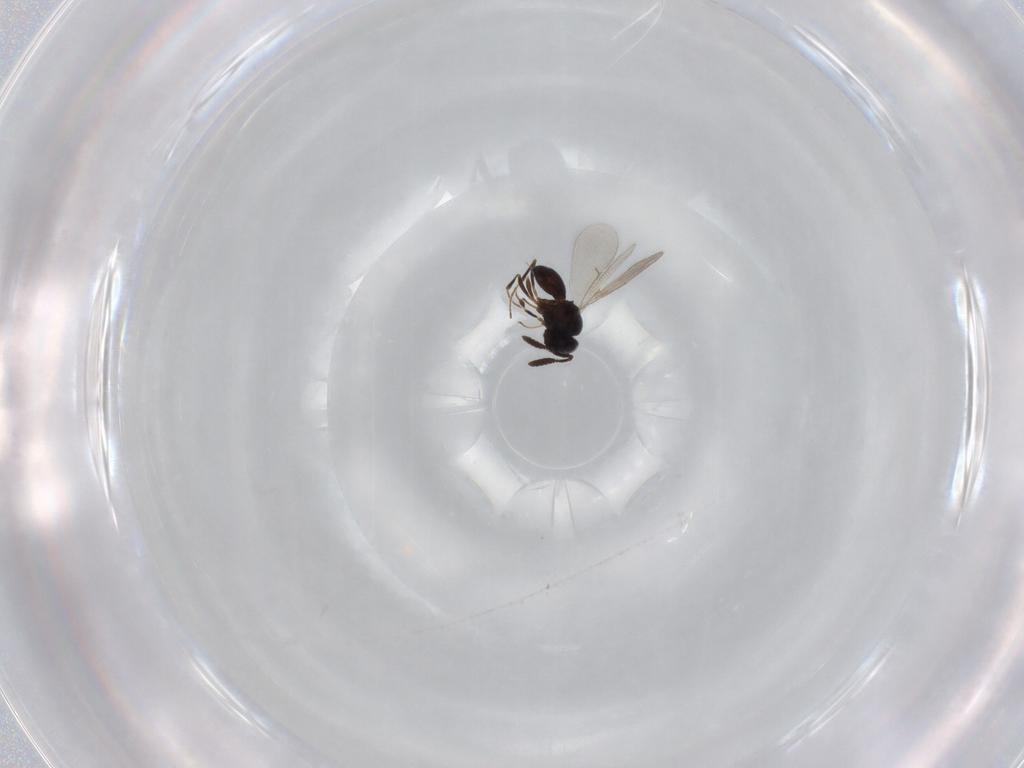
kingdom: Animalia
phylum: Arthropoda
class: Insecta
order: Hymenoptera
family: Scelionidae
